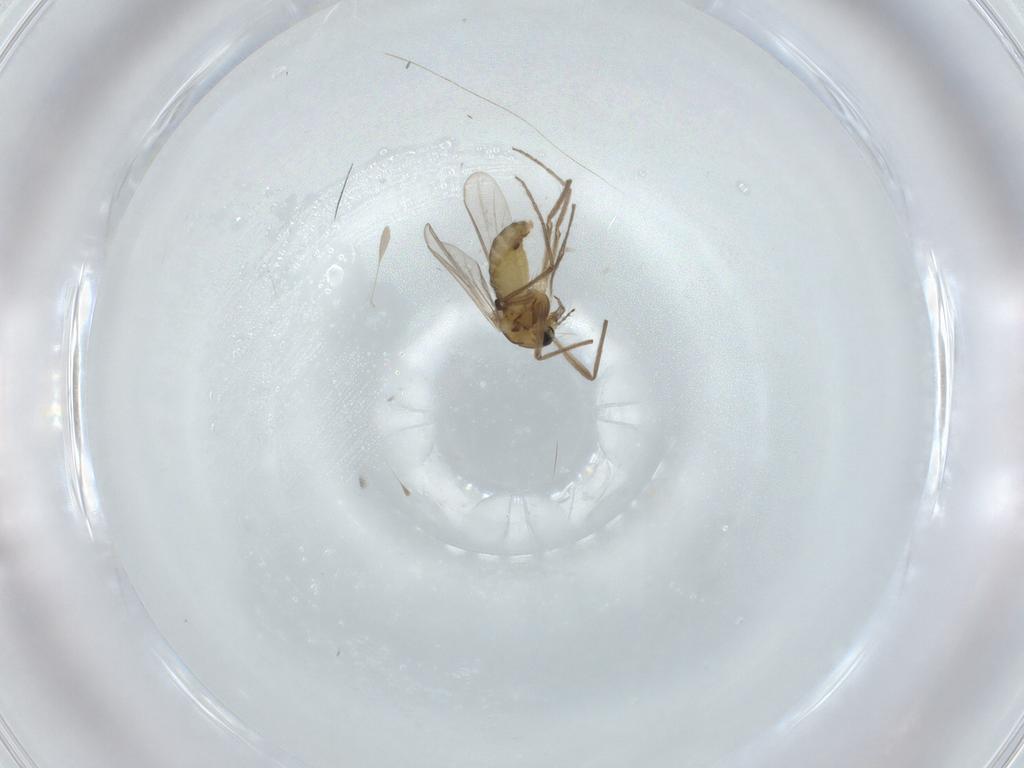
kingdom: Animalia
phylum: Arthropoda
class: Insecta
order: Diptera
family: Chironomidae
